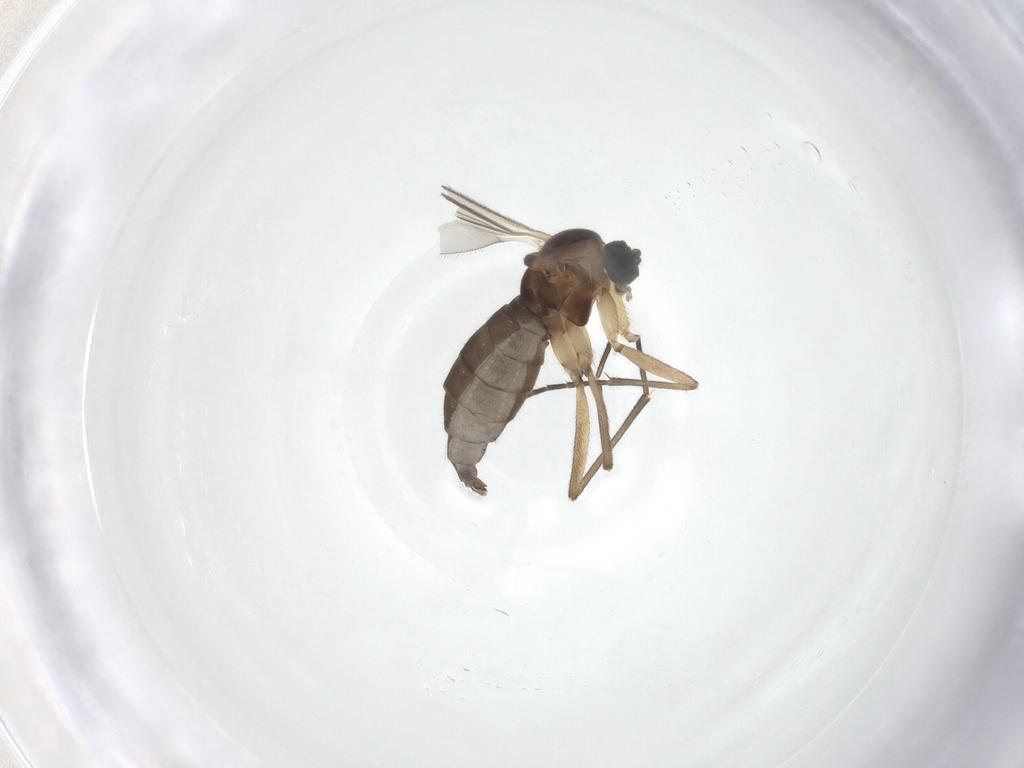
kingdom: Animalia
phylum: Arthropoda
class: Insecta
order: Diptera
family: Sciaridae
